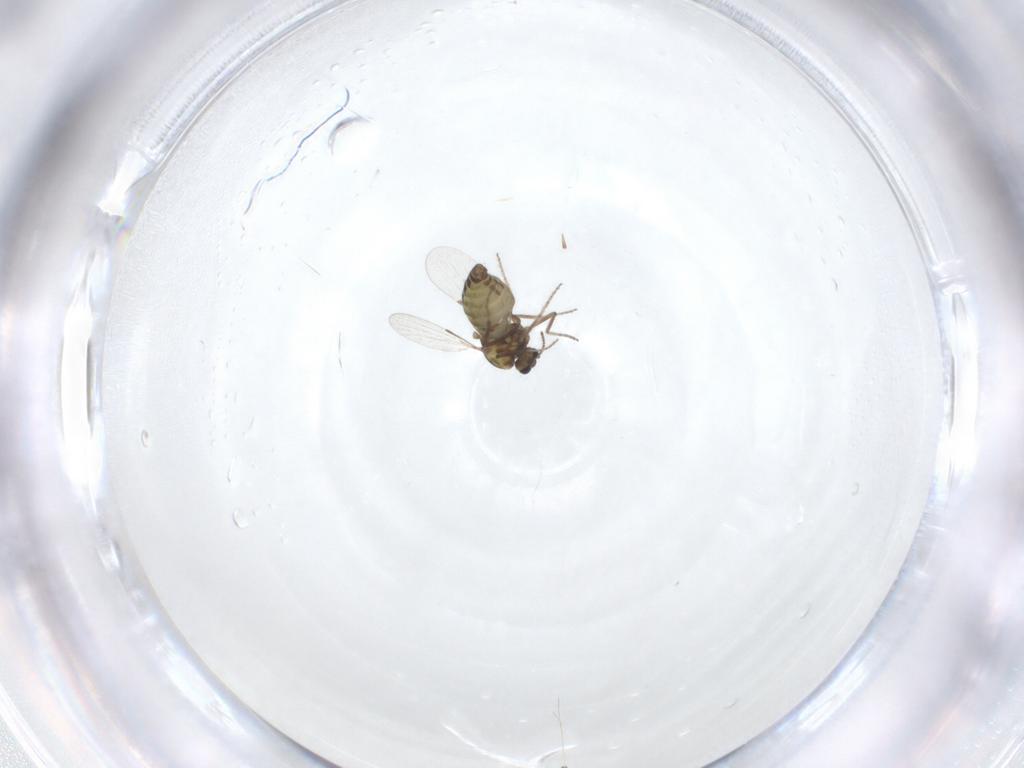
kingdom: Animalia
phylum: Arthropoda
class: Insecta
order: Diptera
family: Ceratopogonidae
